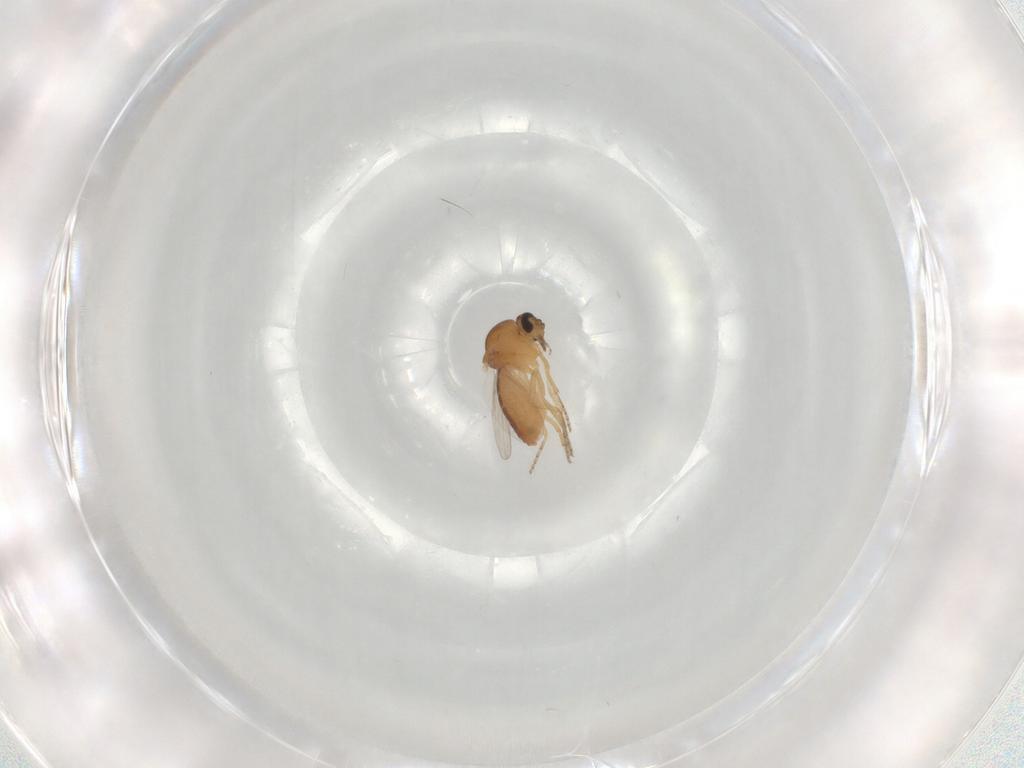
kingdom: Animalia
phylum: Arthropoda
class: Insecta
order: Diptera
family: Ceratopogonidae
